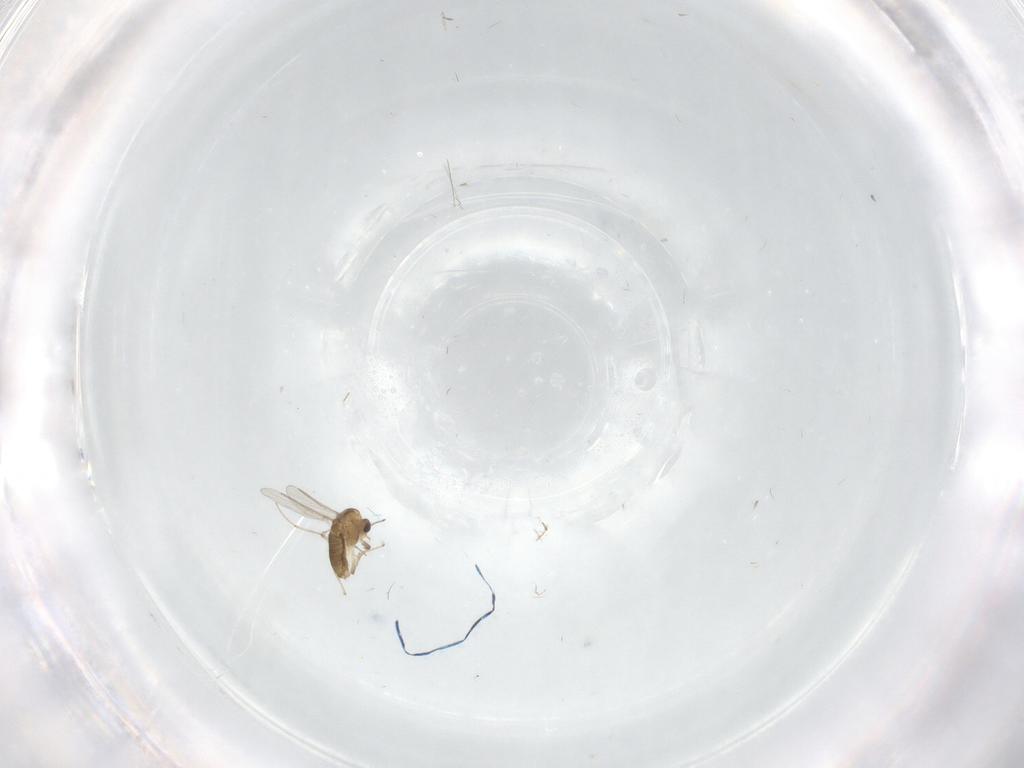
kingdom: Animalia
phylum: Arthropoda
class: Insecta
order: Diptera
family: Chironomidae
